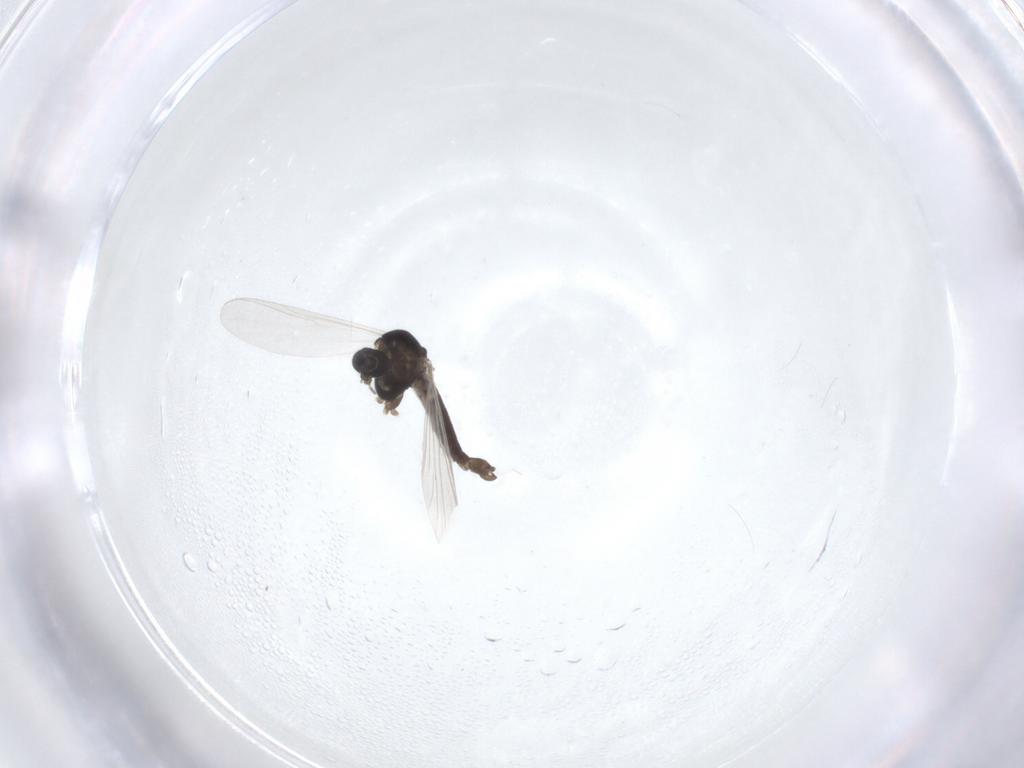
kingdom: Animalia
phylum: Arthropoda
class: Insecta
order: Diptera
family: Chironomidae
